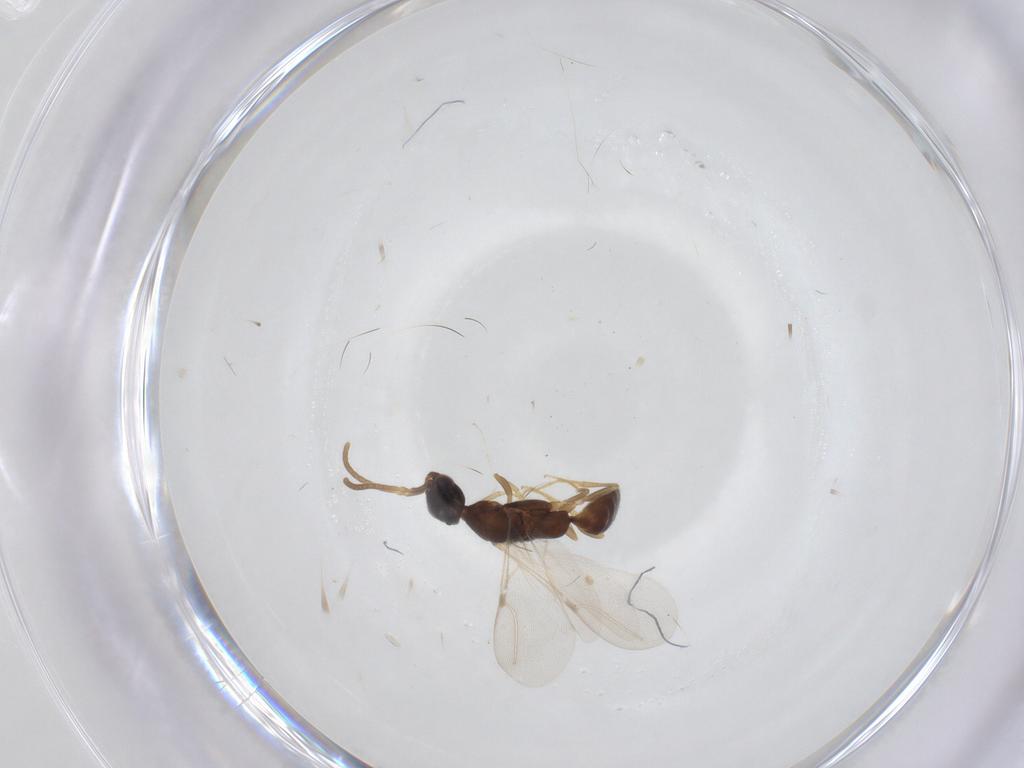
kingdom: Animalia
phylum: Arthropoda
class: Insecta
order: Hymenoptera
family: Bethylidae
